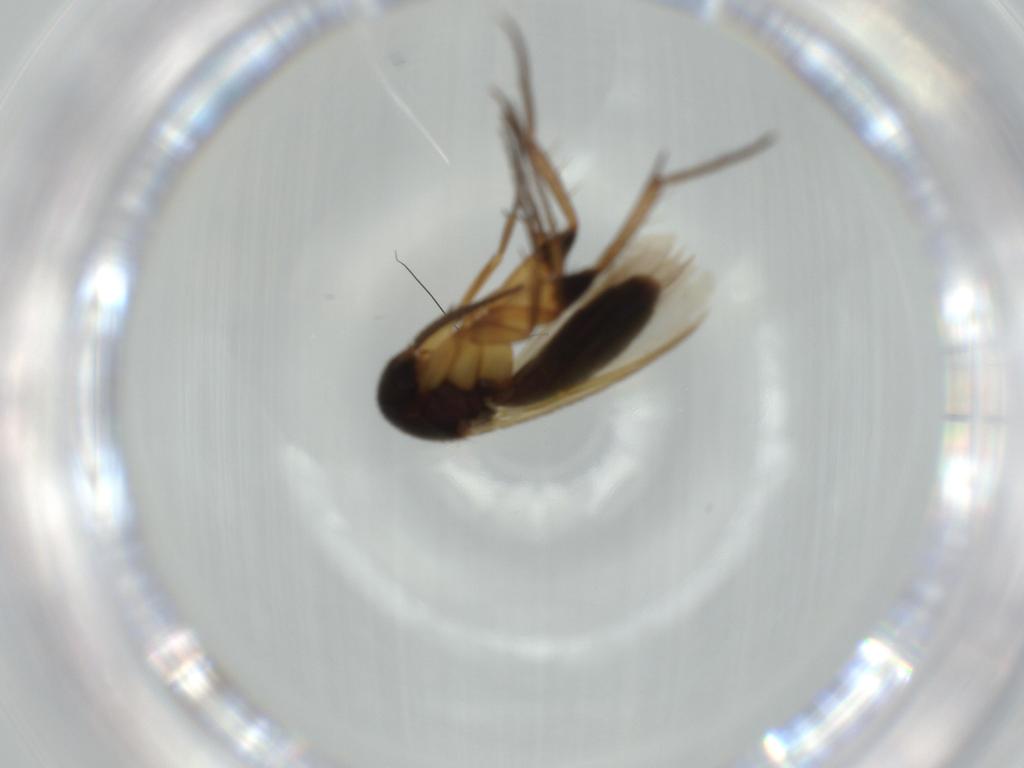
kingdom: Animalia
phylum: Arthropoda
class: Insecta
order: Diptera
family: Mycetophilidae
